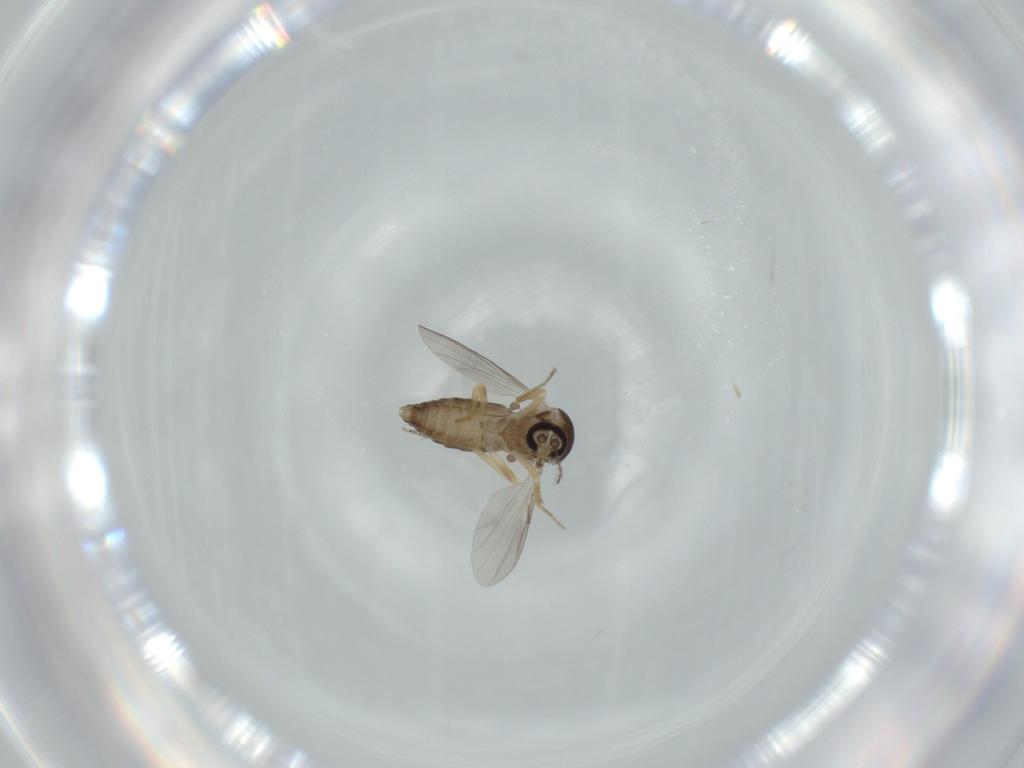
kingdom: Animalia
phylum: Arthropoda
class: Insecta
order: Diptera
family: Ceratopogonidae
